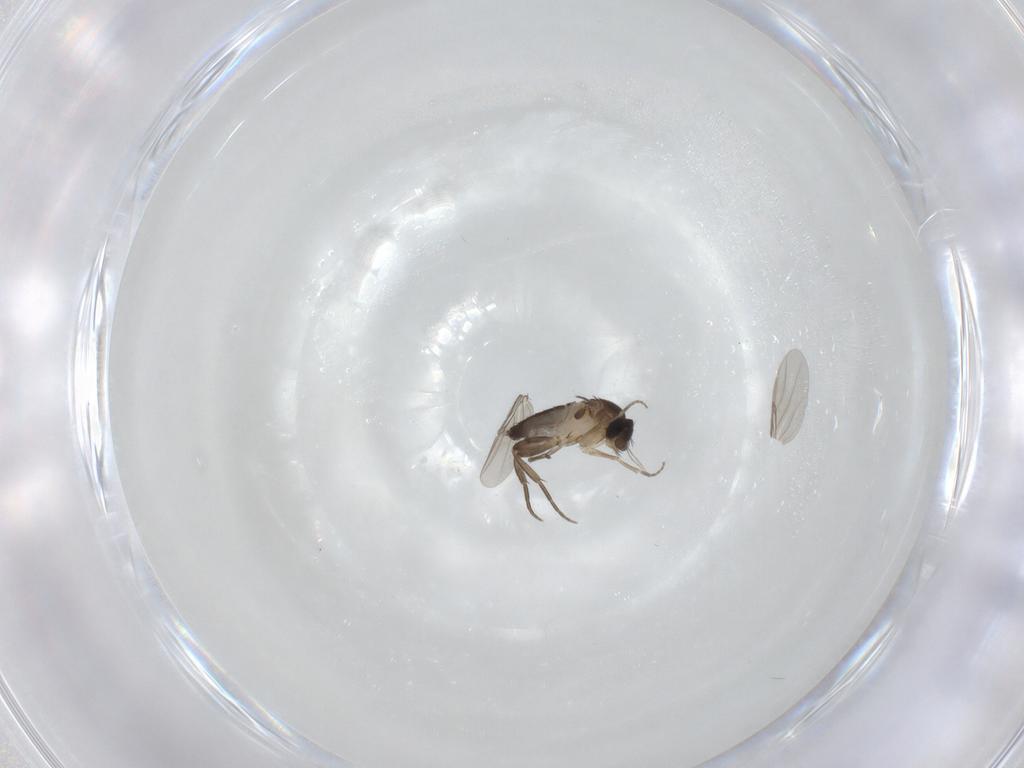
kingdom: Animalia
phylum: Arthropoda
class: Insecta
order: Diptera
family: Phoridae
